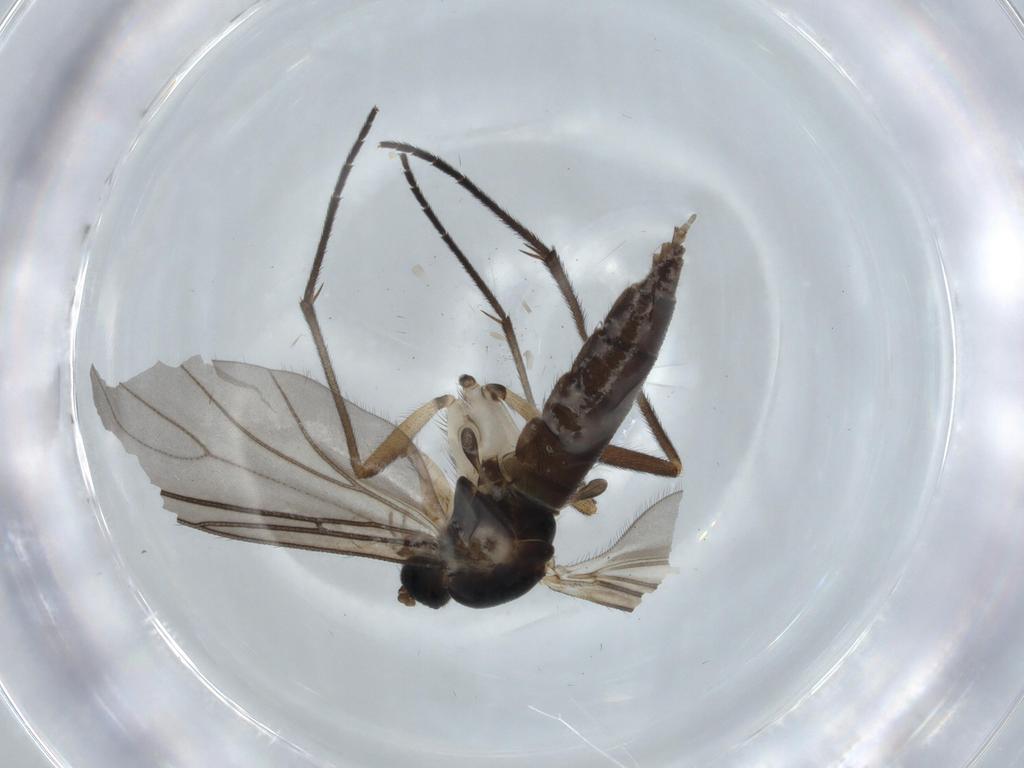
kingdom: Animalia
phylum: Arthropoda
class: Insecta
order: Diptera
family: Sciaridae
